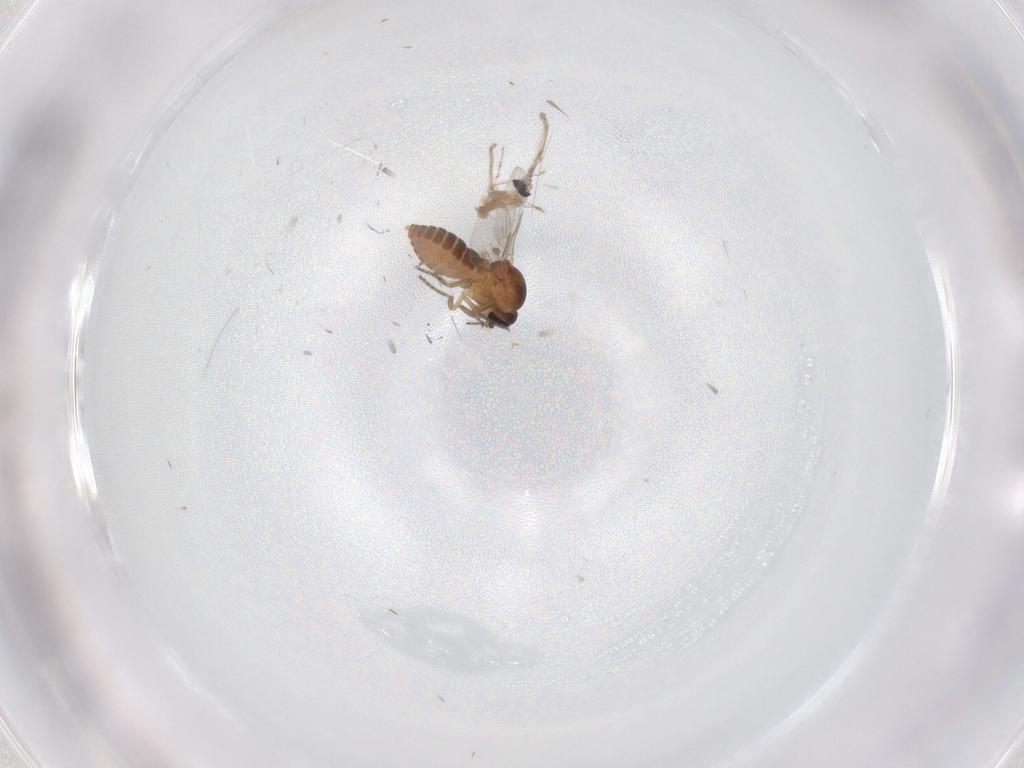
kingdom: Animalia
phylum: Arthropoda
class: Insecta
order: Diptera
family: Ceratopogonidae
